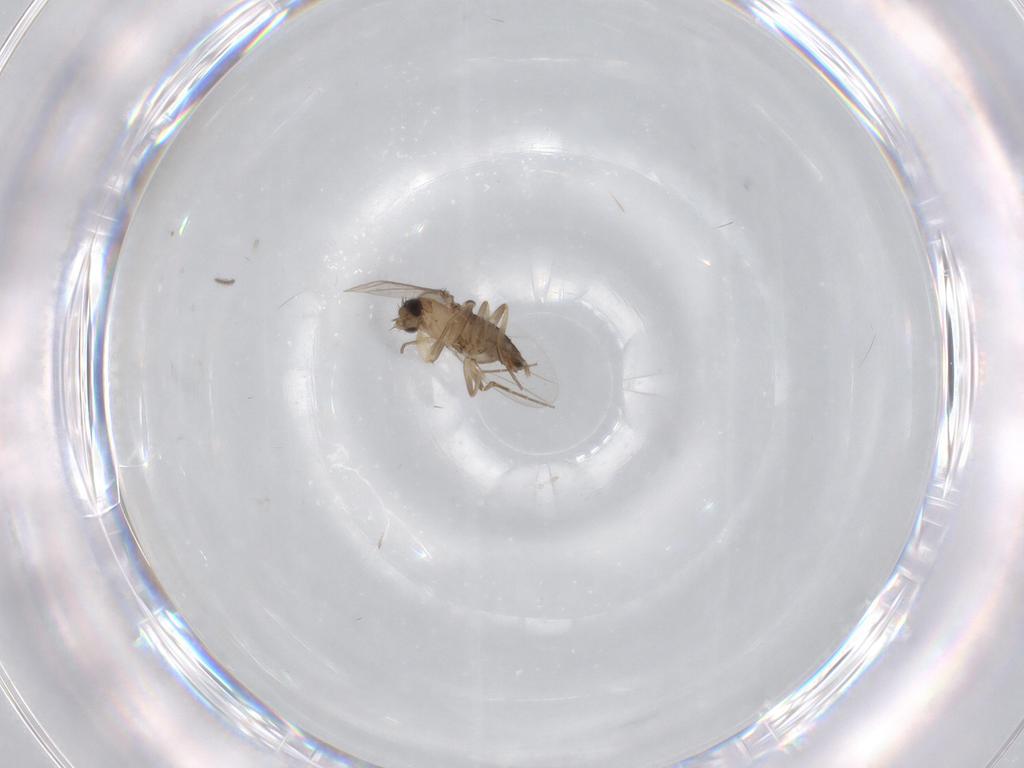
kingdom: Animalia
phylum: Arthropoda
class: Insecta
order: Diptera
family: Phoridae
